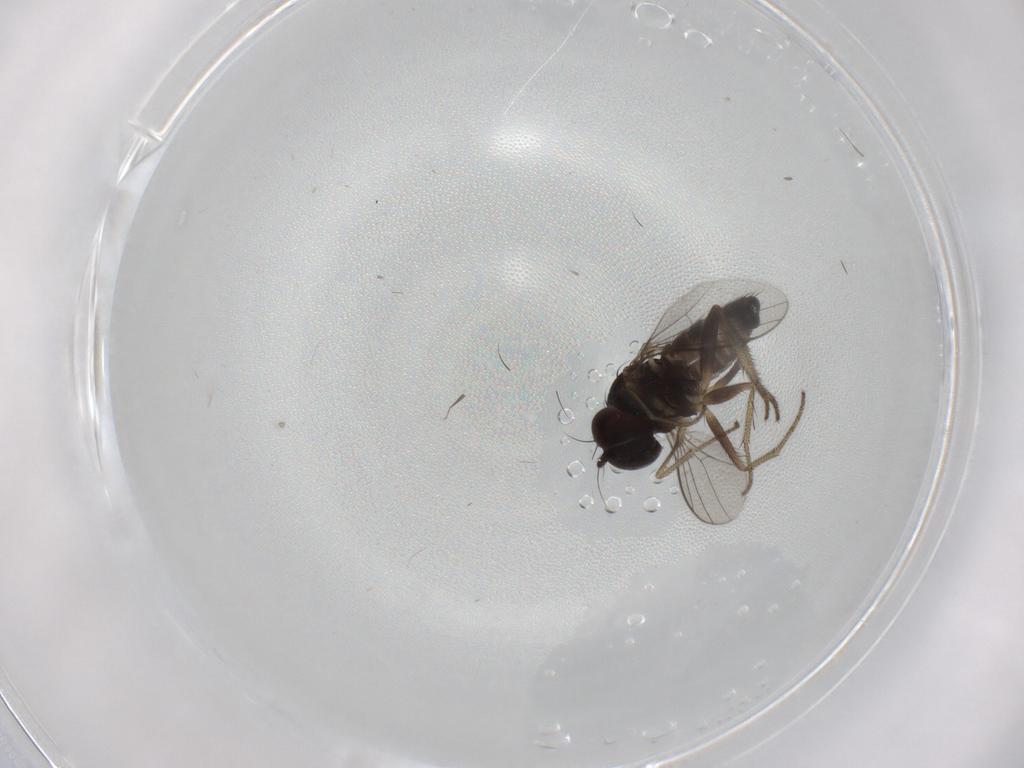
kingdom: Animalia
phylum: Arthropoda
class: Insecta
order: Diptera
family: Dolichopodidae
